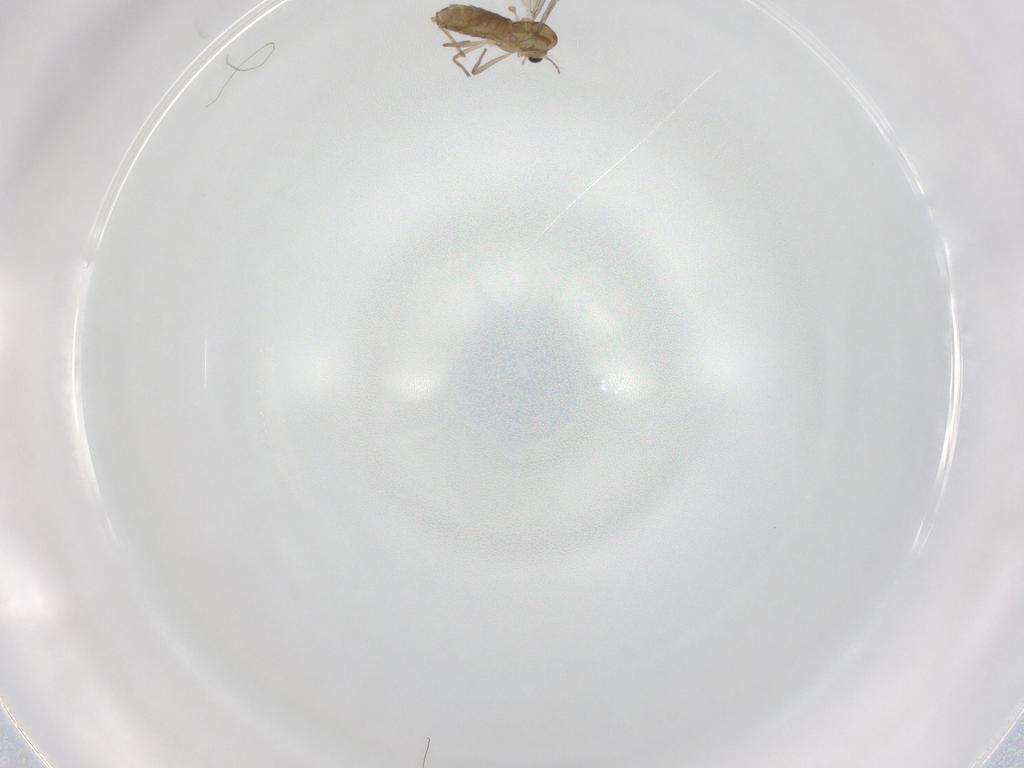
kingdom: Animalia
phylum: Arthropoda
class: Insecta
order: Diptera
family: Chironomidae
